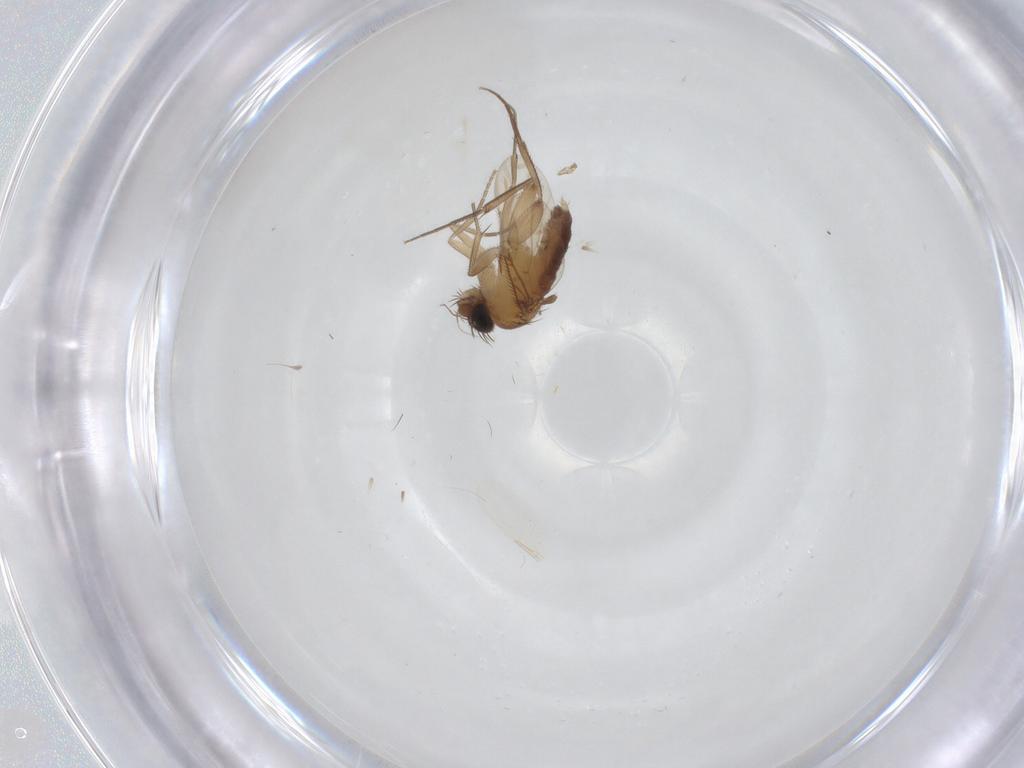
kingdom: Animalia
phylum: Arthropoda
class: Insecta
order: Diptera
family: Phoridae
